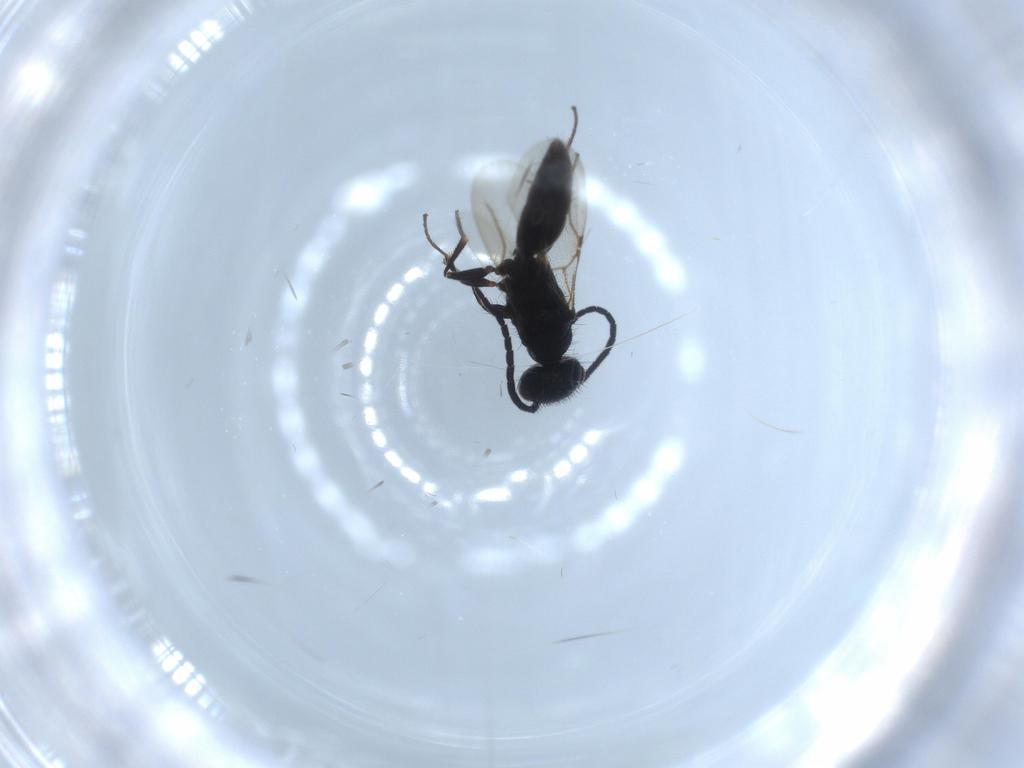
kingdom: Animalia
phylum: Arthropoda
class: Insecta
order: Hymenoptera
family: Bethylidae
